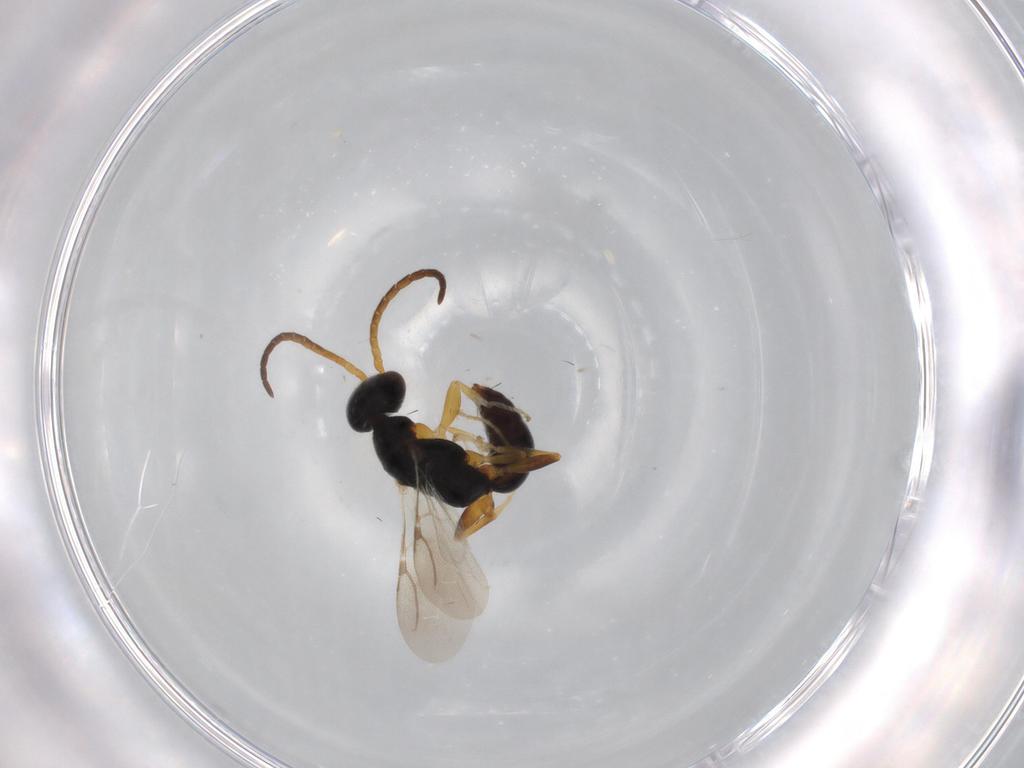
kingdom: Animalia
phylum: Arthropoda
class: Insecta
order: Hymenoptera
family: Bethylidae
